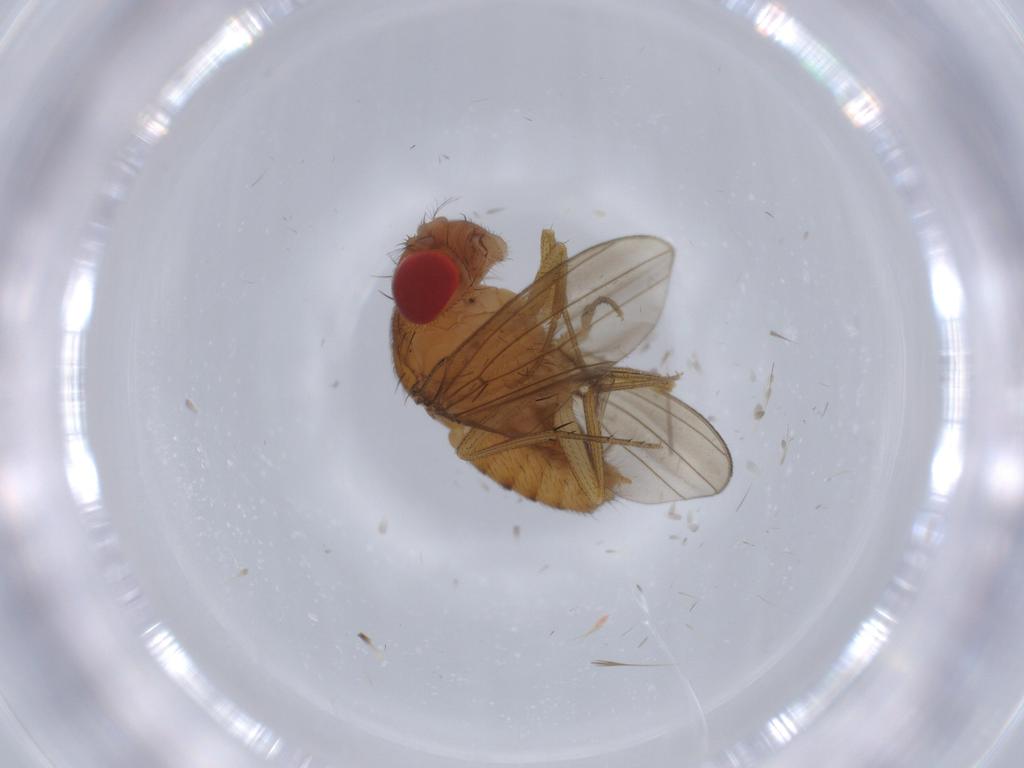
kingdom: Animalia
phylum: Arthropoda
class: Insecta
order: Diptera
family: Drosophilidae
